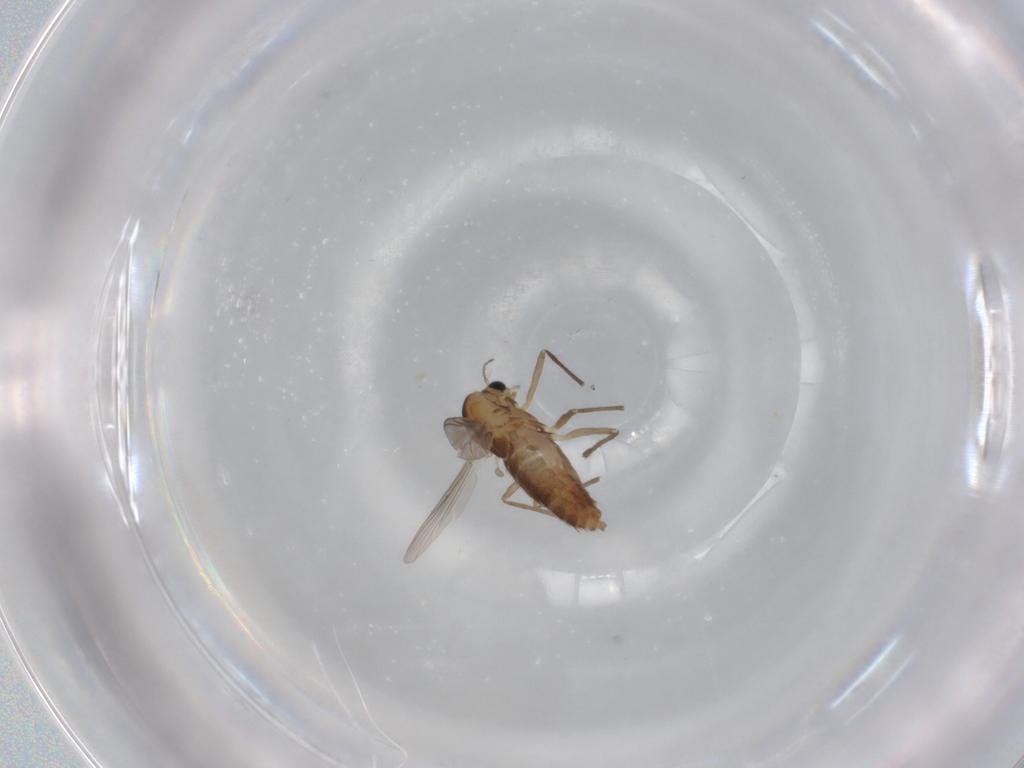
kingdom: Animalia
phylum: Arthropoda
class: Insecta
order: Diptera
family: Chironomidae
